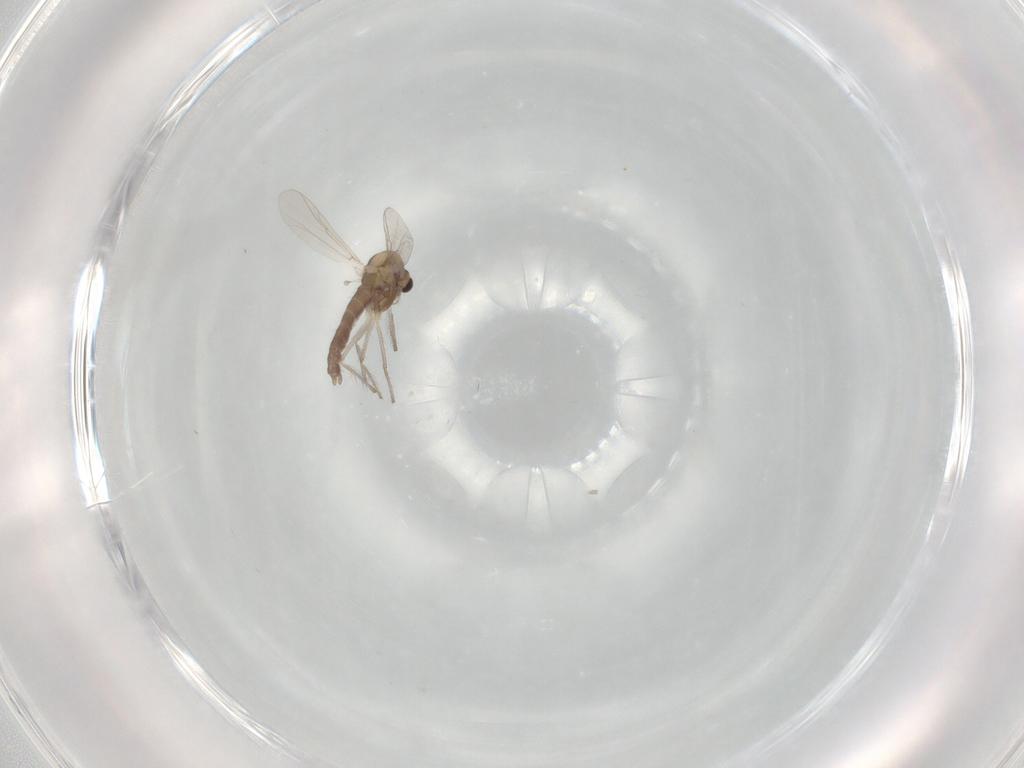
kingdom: Animalia
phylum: Arthropoda
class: Insecta
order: Diptera
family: Chironomidae
